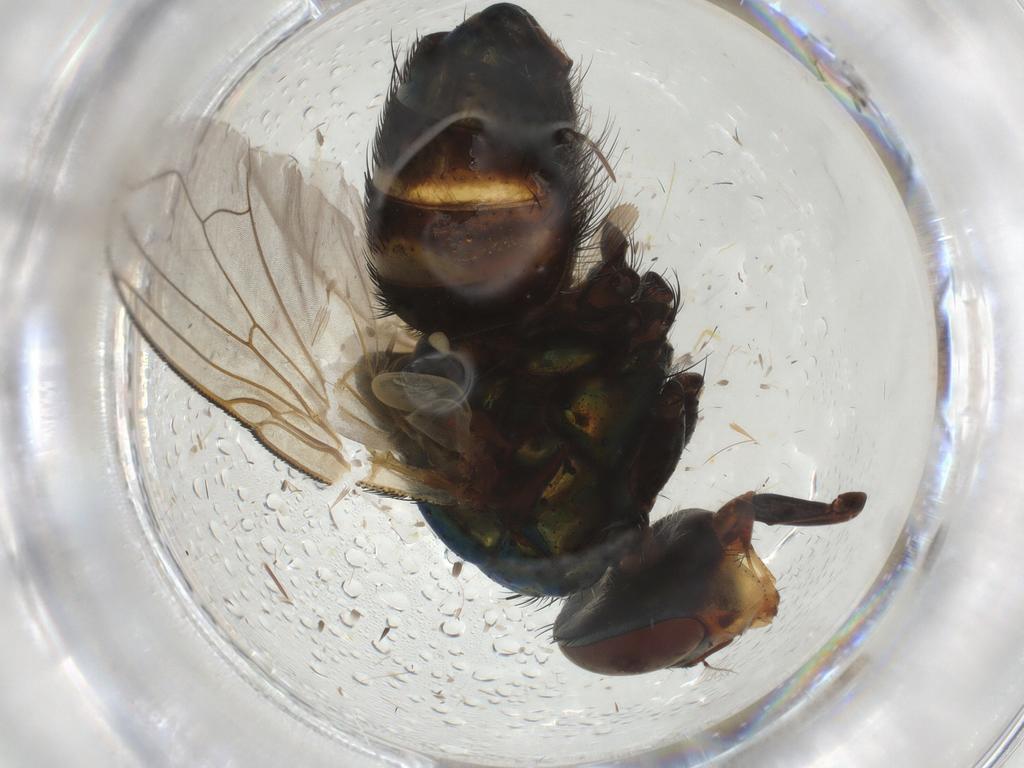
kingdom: Animalia
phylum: Arthropoda
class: Insecta
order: Diptera
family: Calliphoridae
